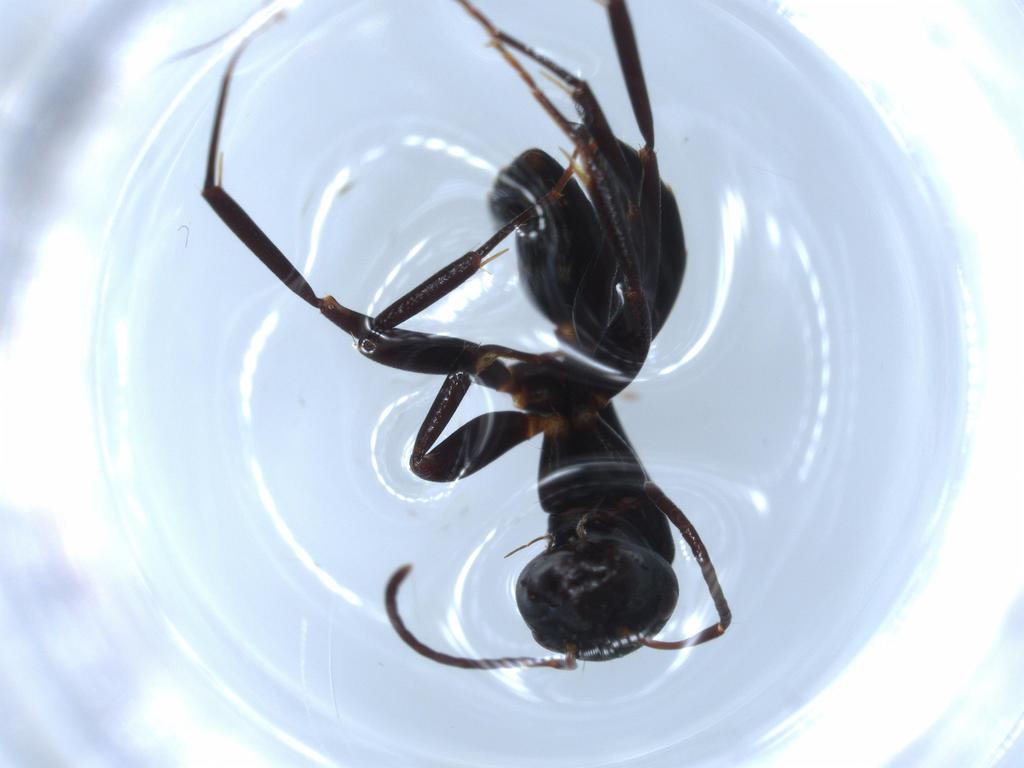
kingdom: Animalia
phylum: Arthropoda
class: Insecta
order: Hymenoptera
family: Formicidae
